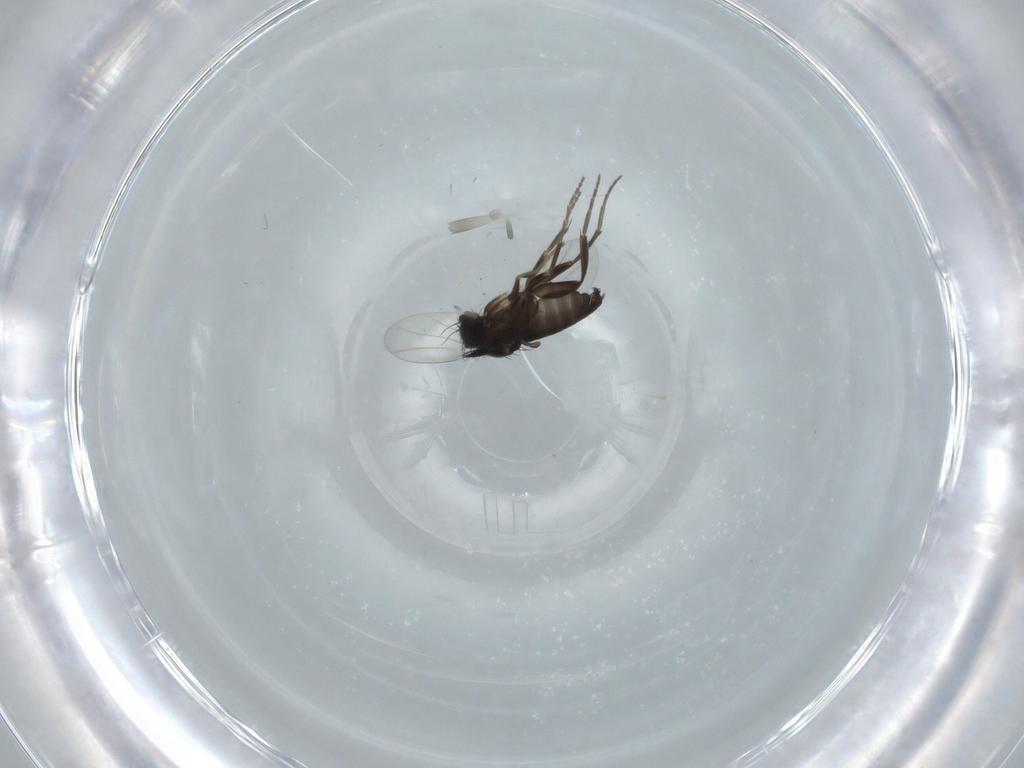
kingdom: Animalia
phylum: Arthropoda
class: Insecta
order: Diptera
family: Phoridae
